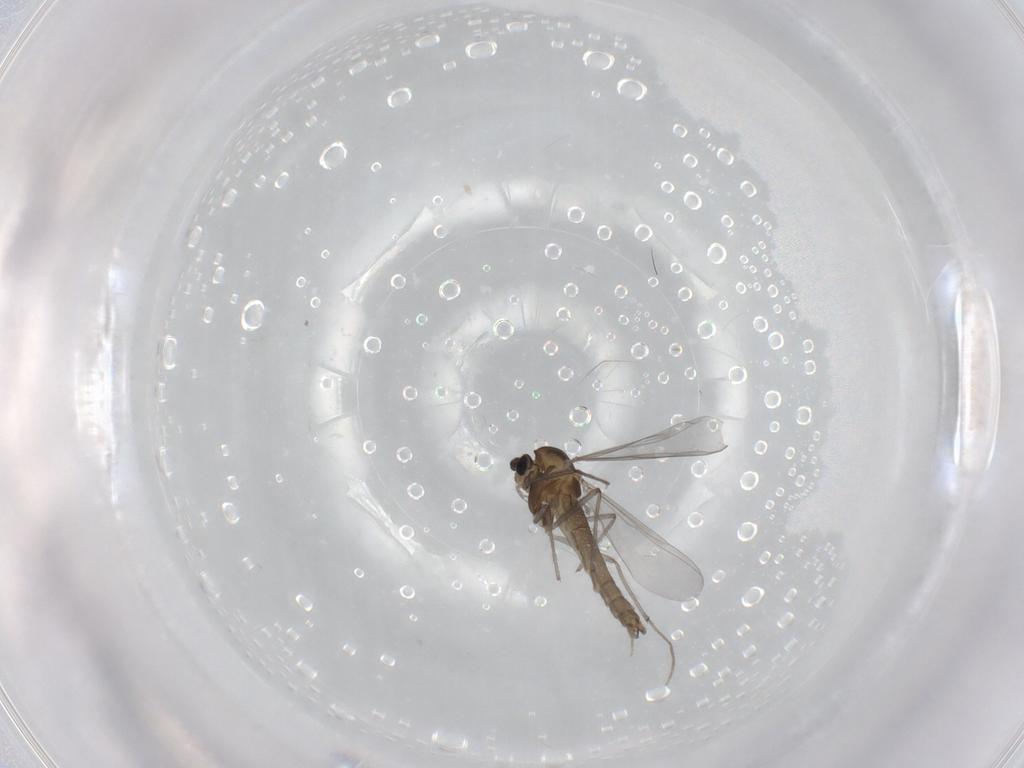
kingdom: Animalia
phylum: Arthropoda
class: Insecta
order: Diptera
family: Chironomidae
